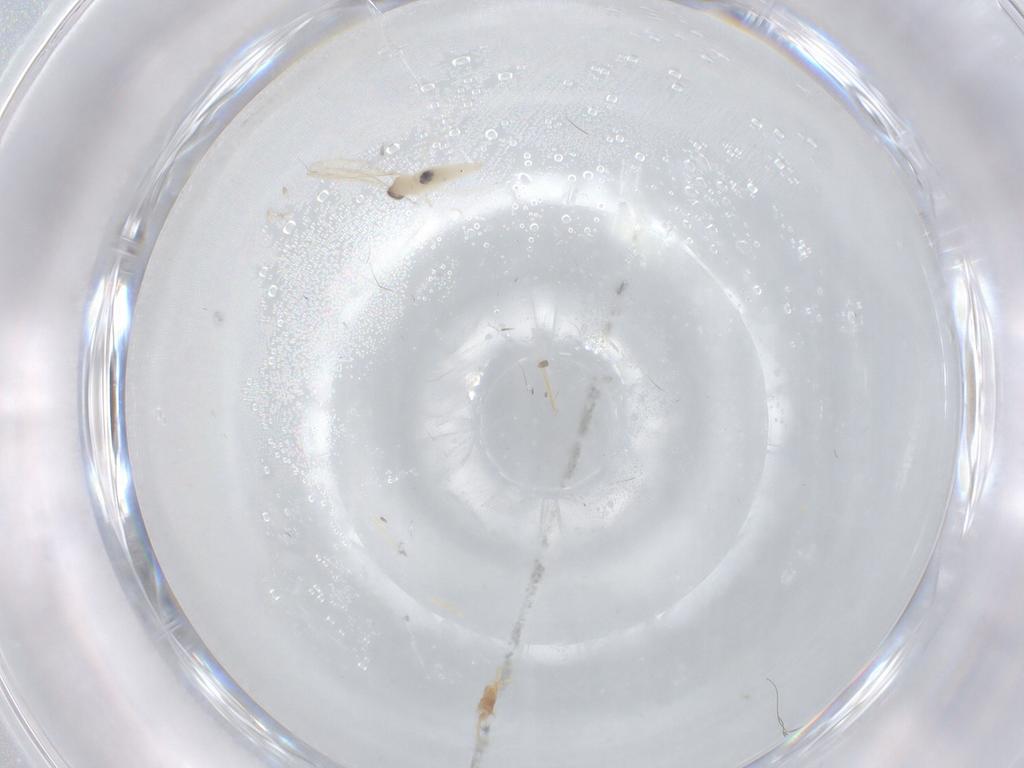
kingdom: Animalia
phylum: Arthropoda
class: Insecta
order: Diptera
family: Cecidomyiidae
